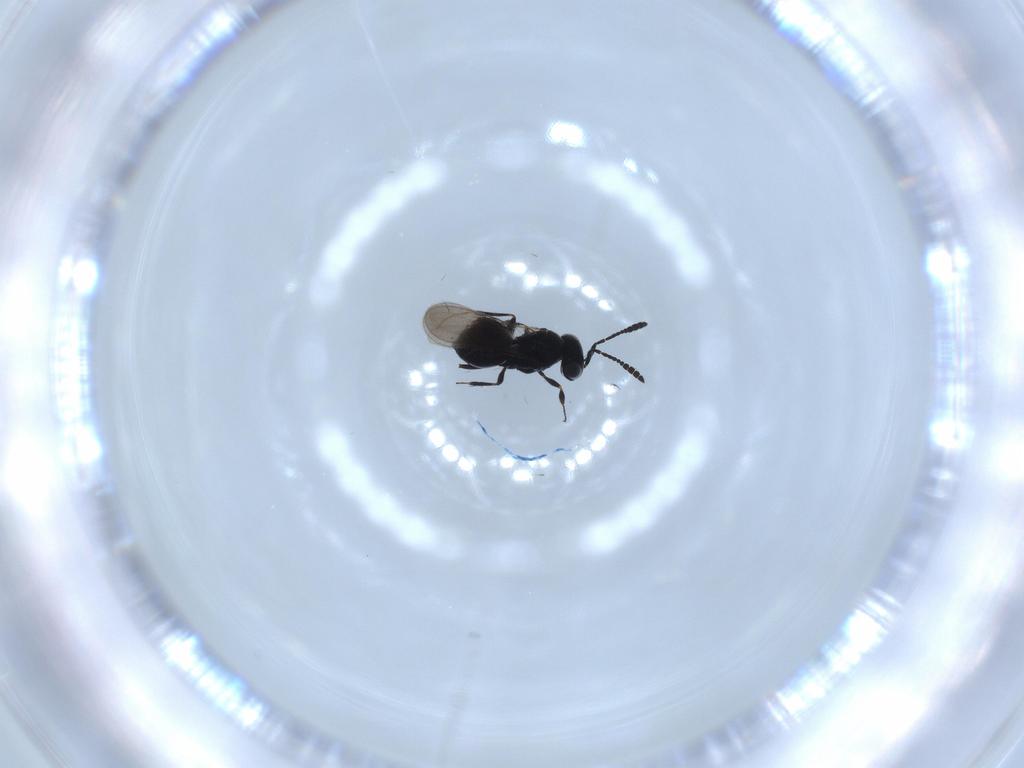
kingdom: Animalia
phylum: Arthropoda
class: Insecta
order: Hymenoptera
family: Scelionidae
